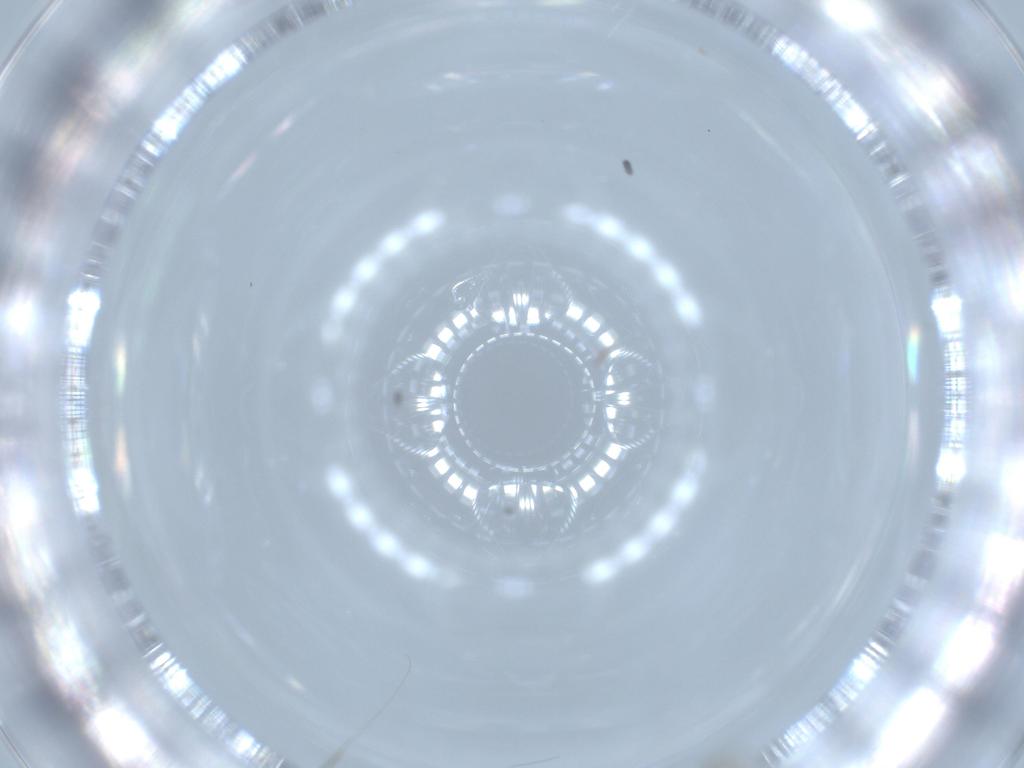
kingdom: Animalia
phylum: Arthropoda
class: Insecta
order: Diptera
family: Cecidomyiidae
